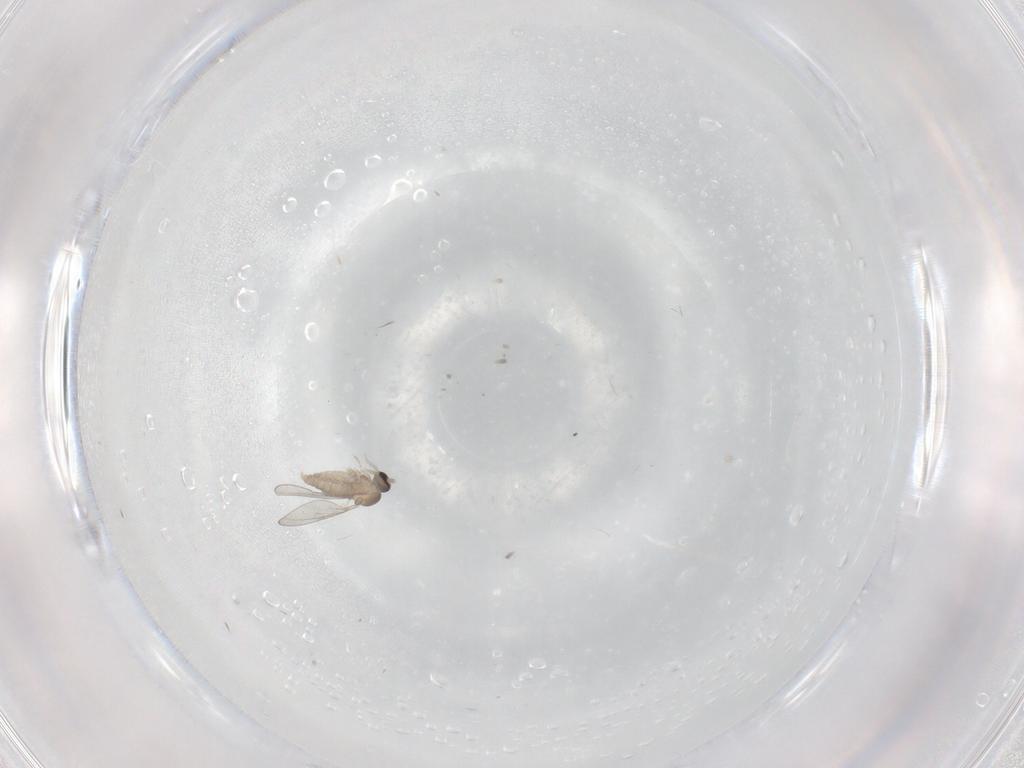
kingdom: Animalia
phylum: Arthropoda
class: Insecta
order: Diptera
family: Cecidomyiidae
